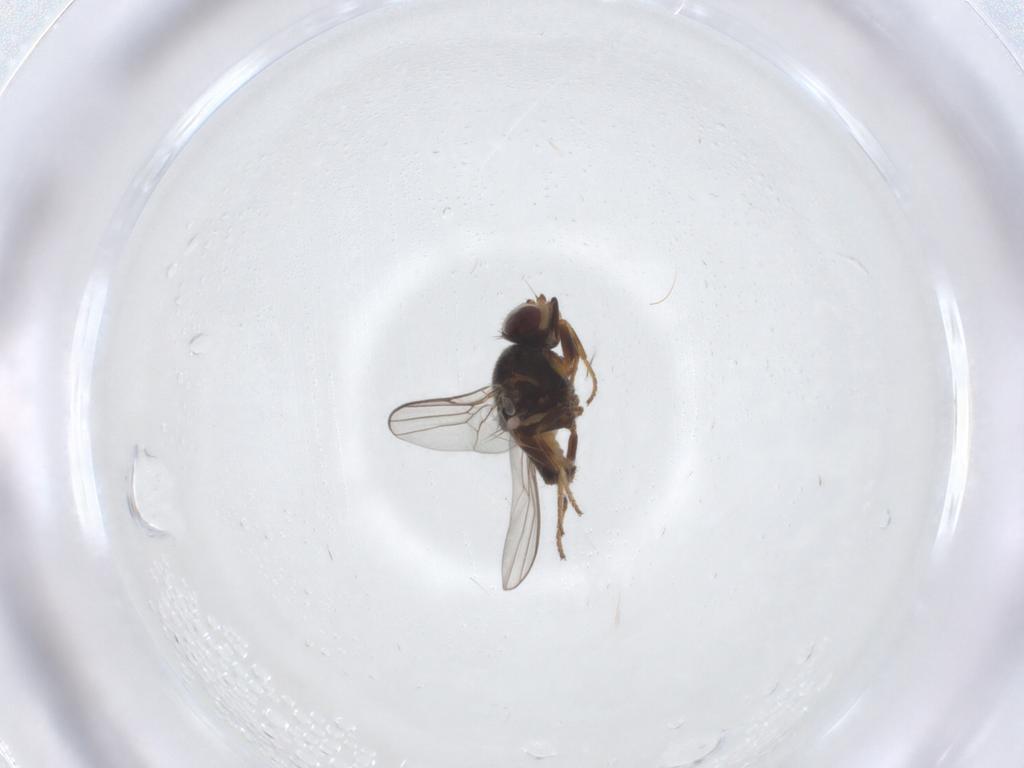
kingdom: Animalia
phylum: Arthropoda
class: Insecta
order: Diptera
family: Chloropidae
